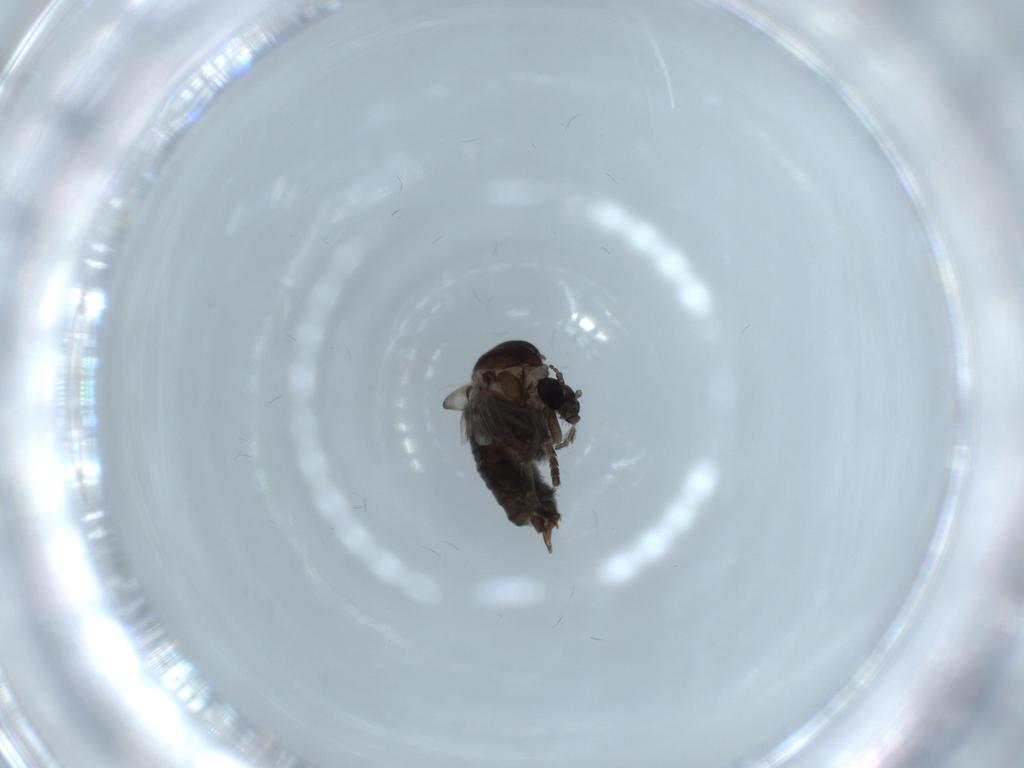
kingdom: Animalia
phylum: Arthropoda
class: Insecta
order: Diptera
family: Psychodidae
